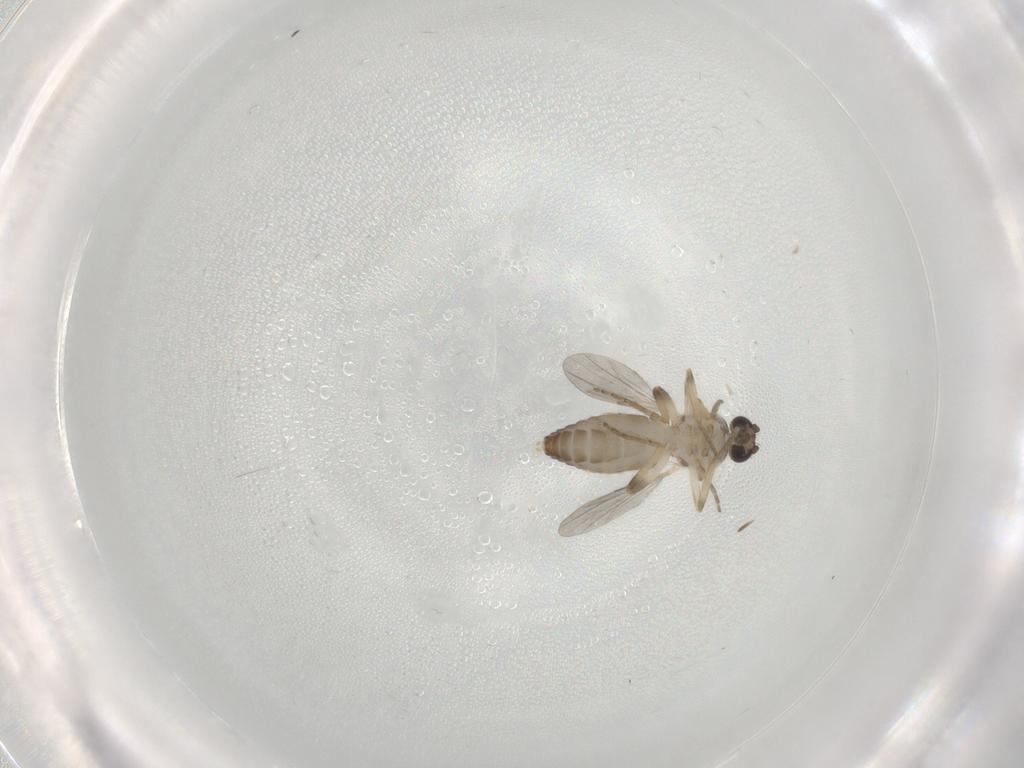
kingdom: Animalia
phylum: Arthropoda
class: Insecta
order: Diptera
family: Ceratopogonidae
